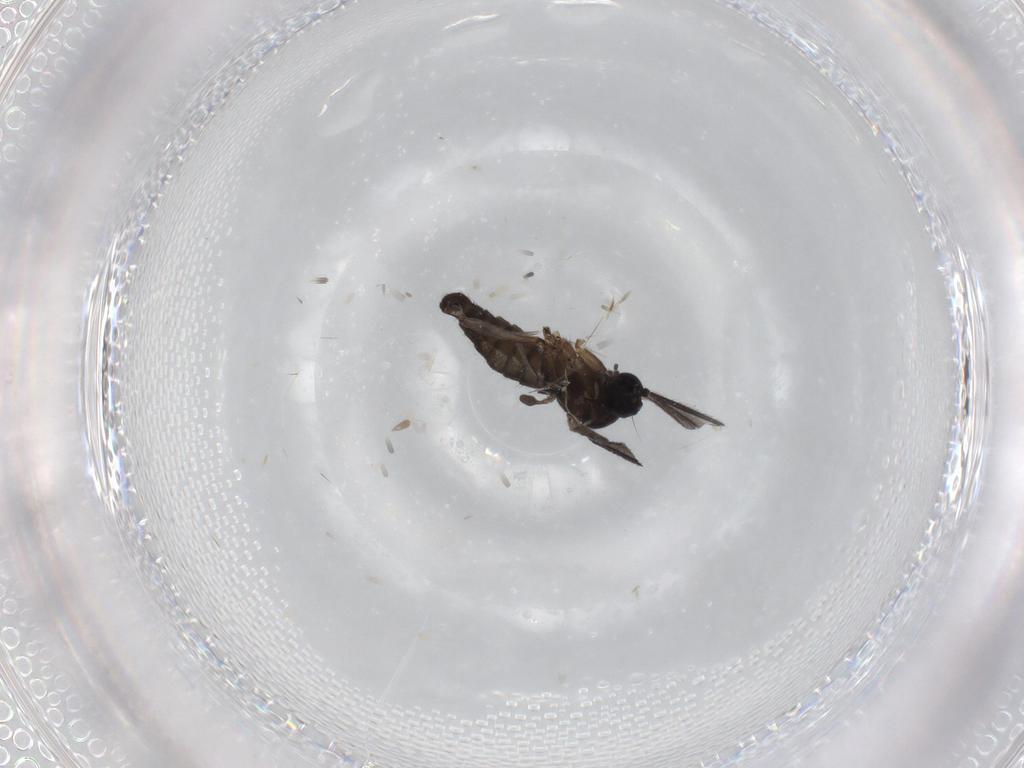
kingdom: Animalia
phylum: Arthropoda
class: Insecta
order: Diptera
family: Sciaridae
